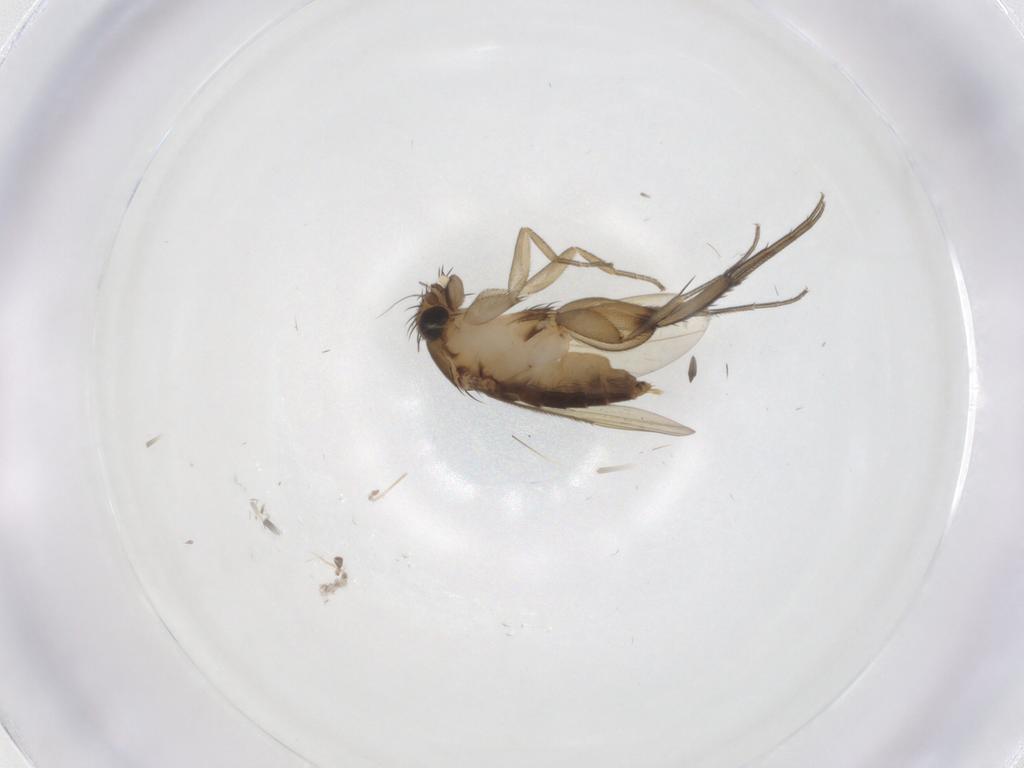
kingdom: Animalia
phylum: Arthropoda
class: Insecta
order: Diptera
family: Phoridae
